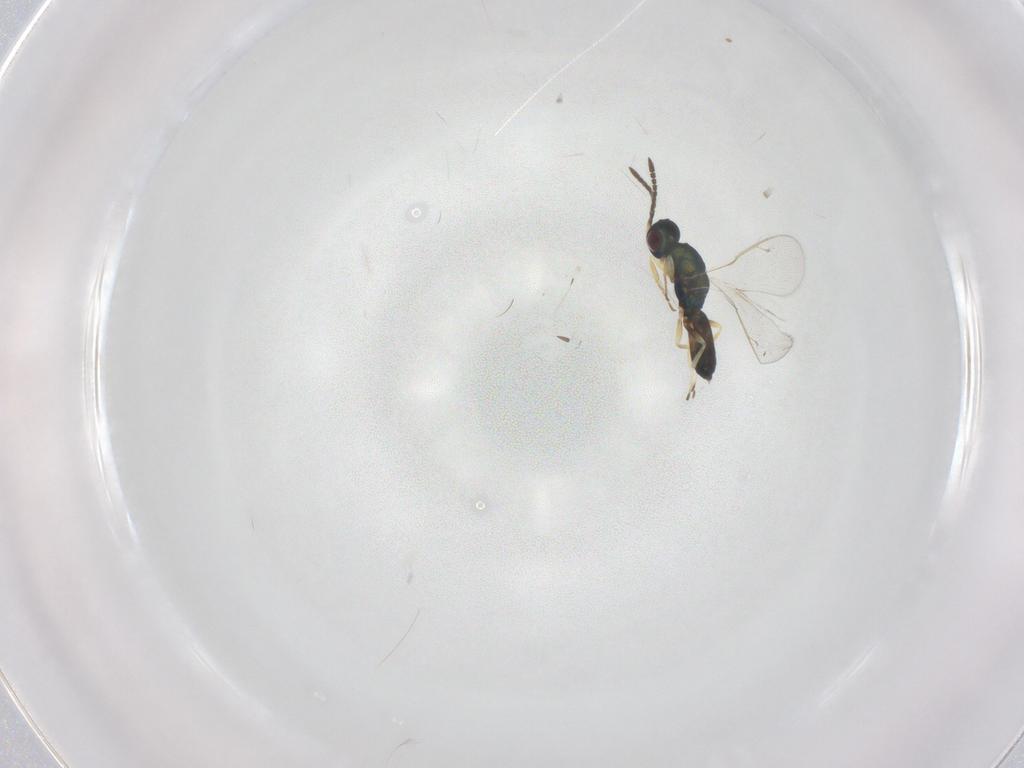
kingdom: Animalia
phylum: Arthropoda
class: Insecta
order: Hymenoptera
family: Pteromalidae
